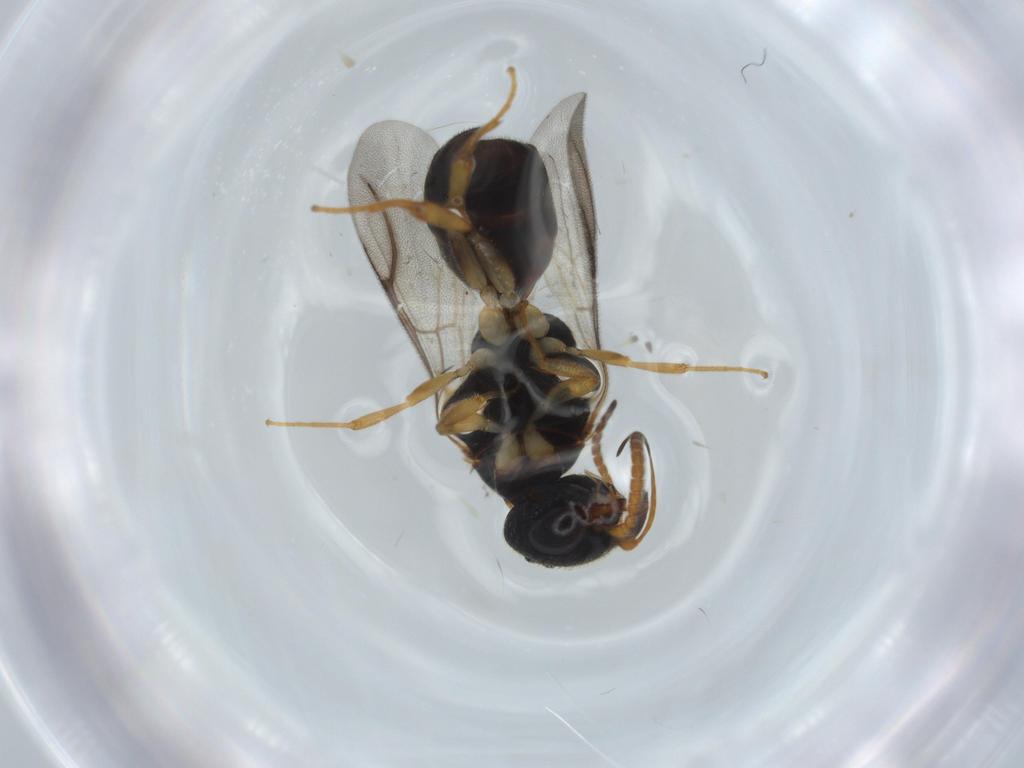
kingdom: Animalia
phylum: Arthropoda
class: Insecta
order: Hymenoptera
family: Bethylidae
